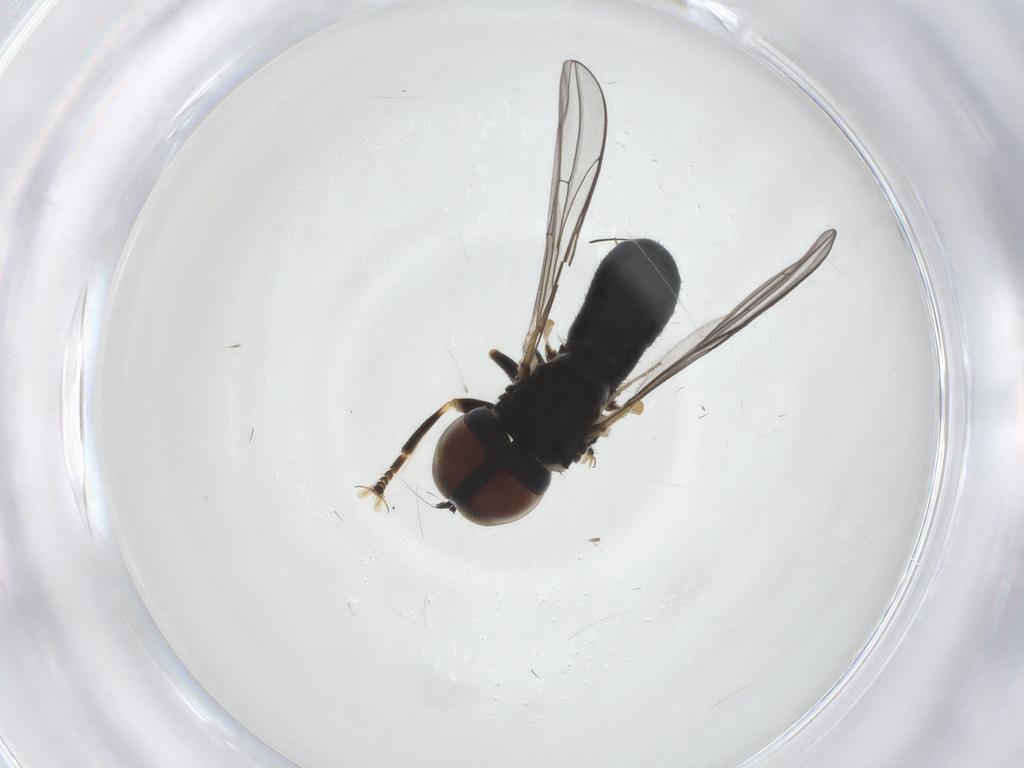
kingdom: Animalia
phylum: Arthropoda
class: Insecta
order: Diptera
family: Pipunculidae
